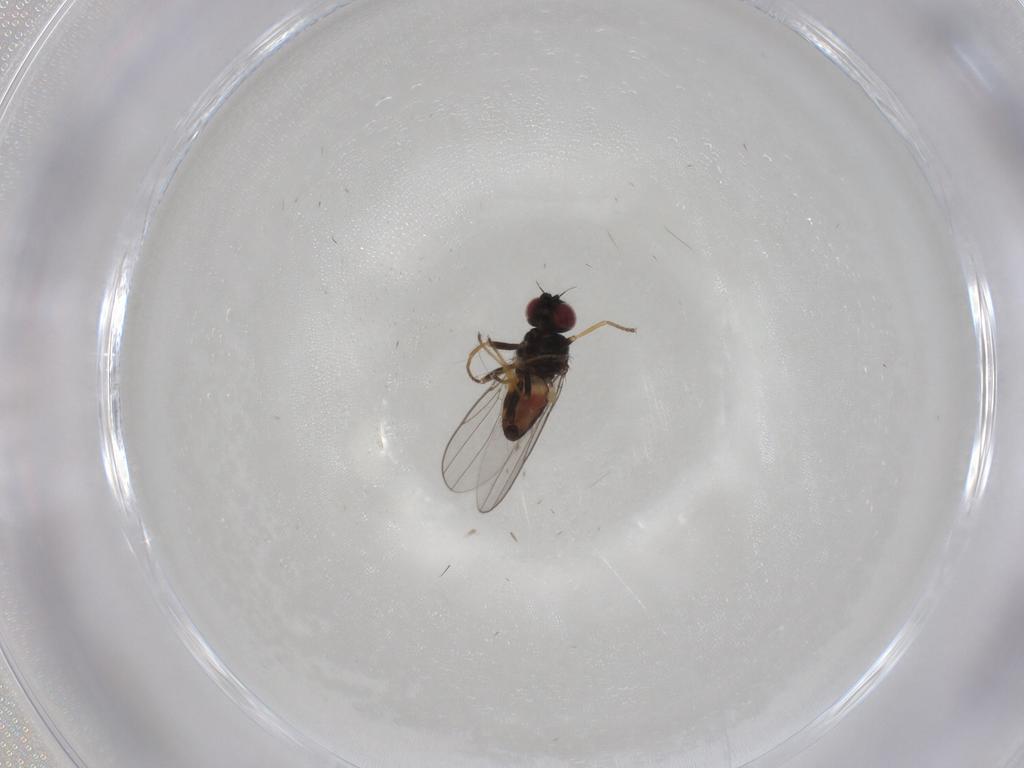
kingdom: Animalia
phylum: Arthropoda
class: Insecta
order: Diptera
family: Chloropidae
